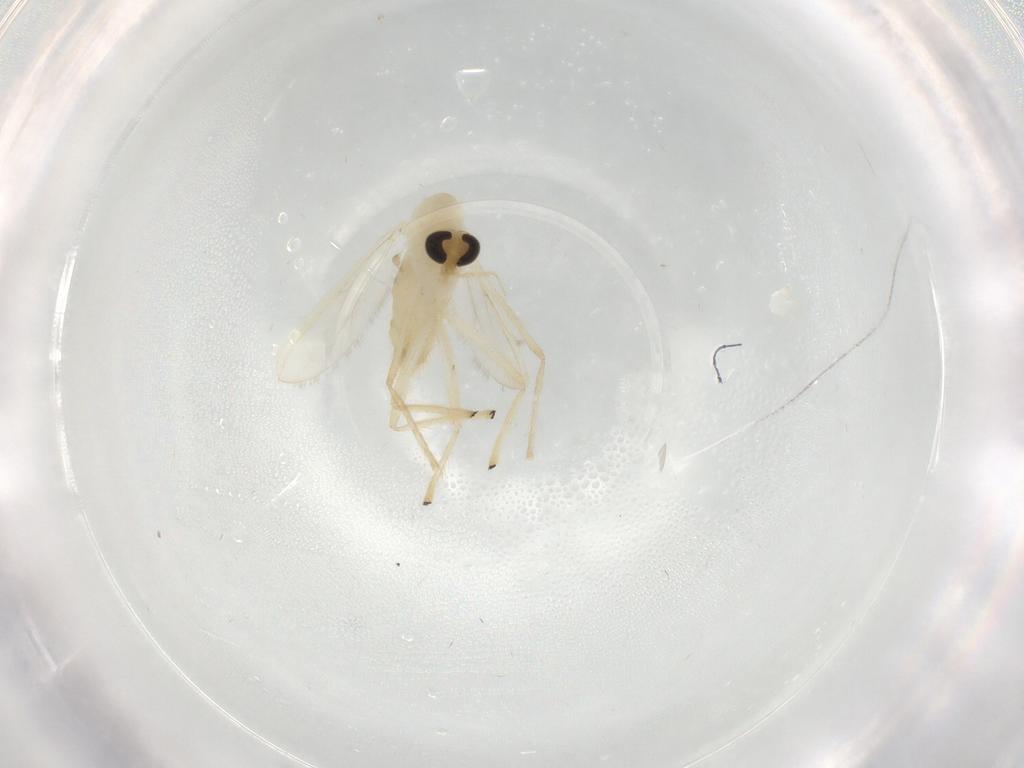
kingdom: Animalia
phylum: Arthropoda
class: Insecta
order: Diptera
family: Chironomidae
